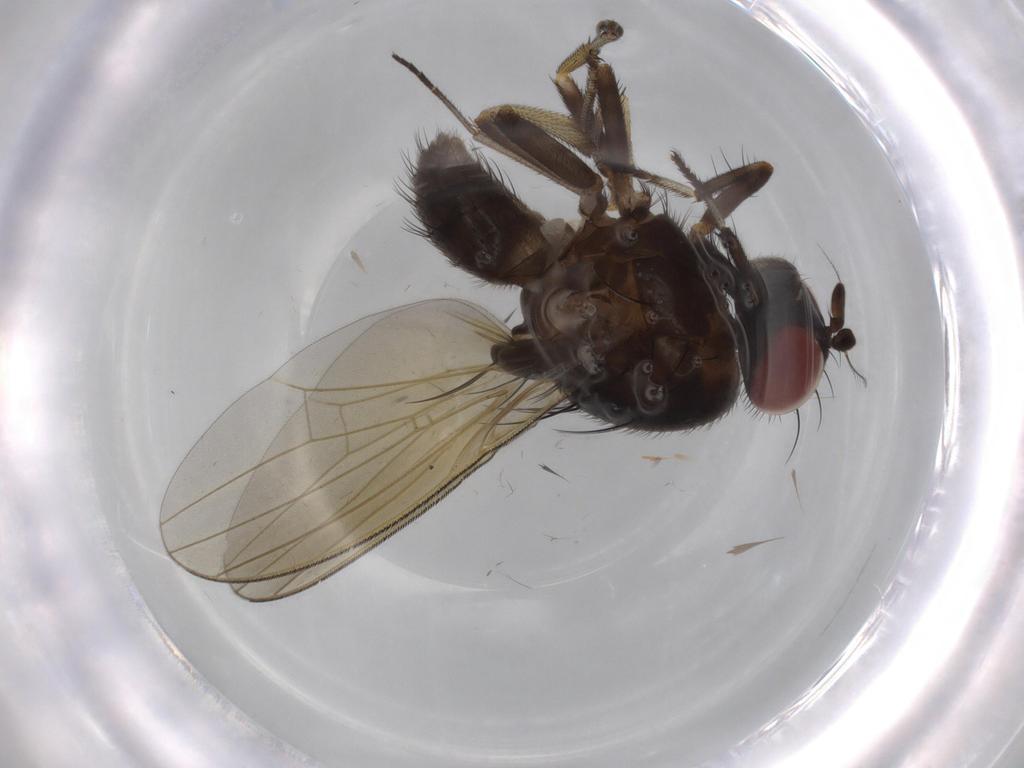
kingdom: Animalia
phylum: Arthropoda
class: Insecta
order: Diptera
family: Sciaridae
